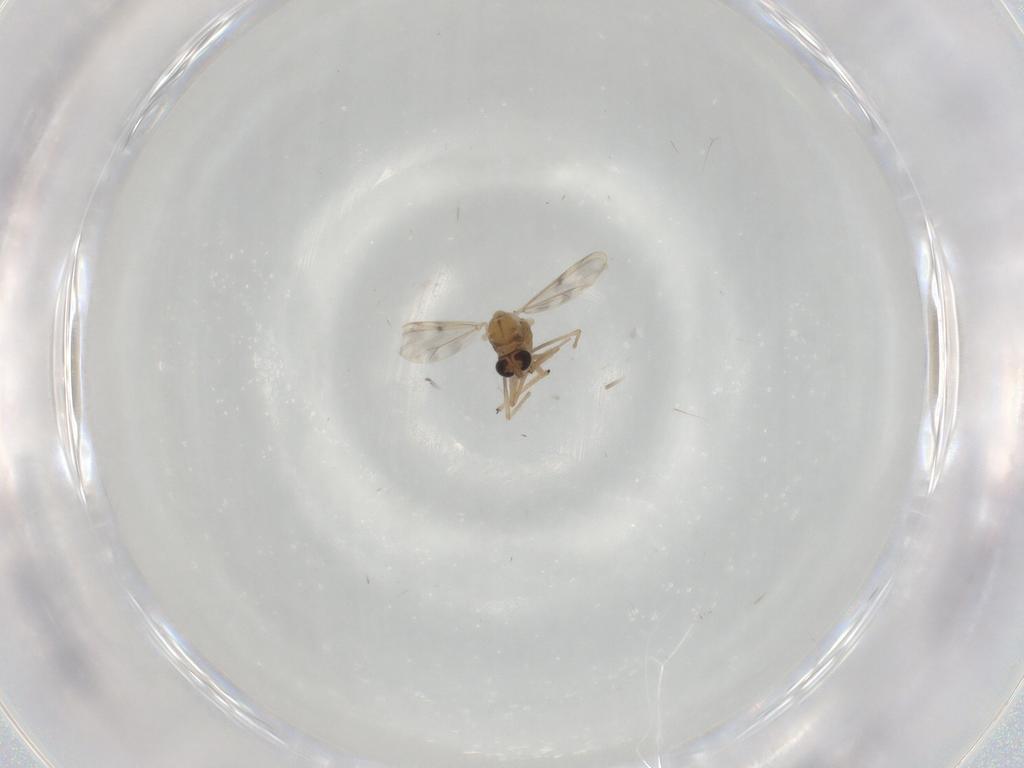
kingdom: Animalia
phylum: Arthropoda
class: Insecta
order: Diptera
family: Chironomidae
